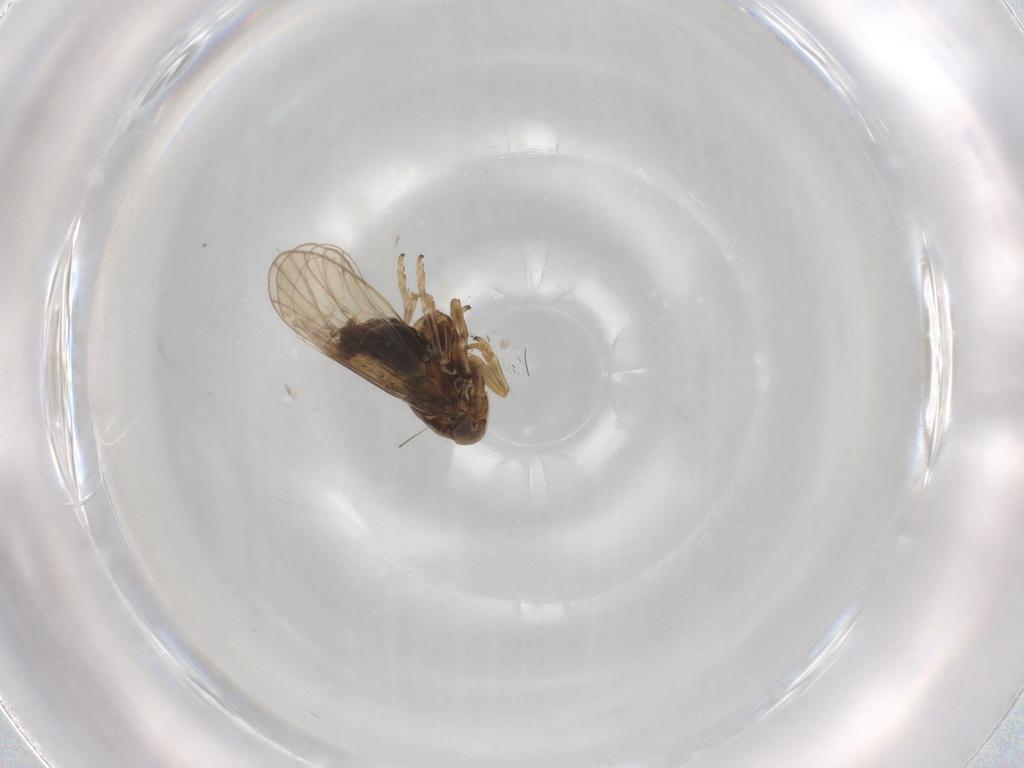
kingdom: Animalia
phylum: Arthropoda
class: Insecta
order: Hemiptera
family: Delphacidae
